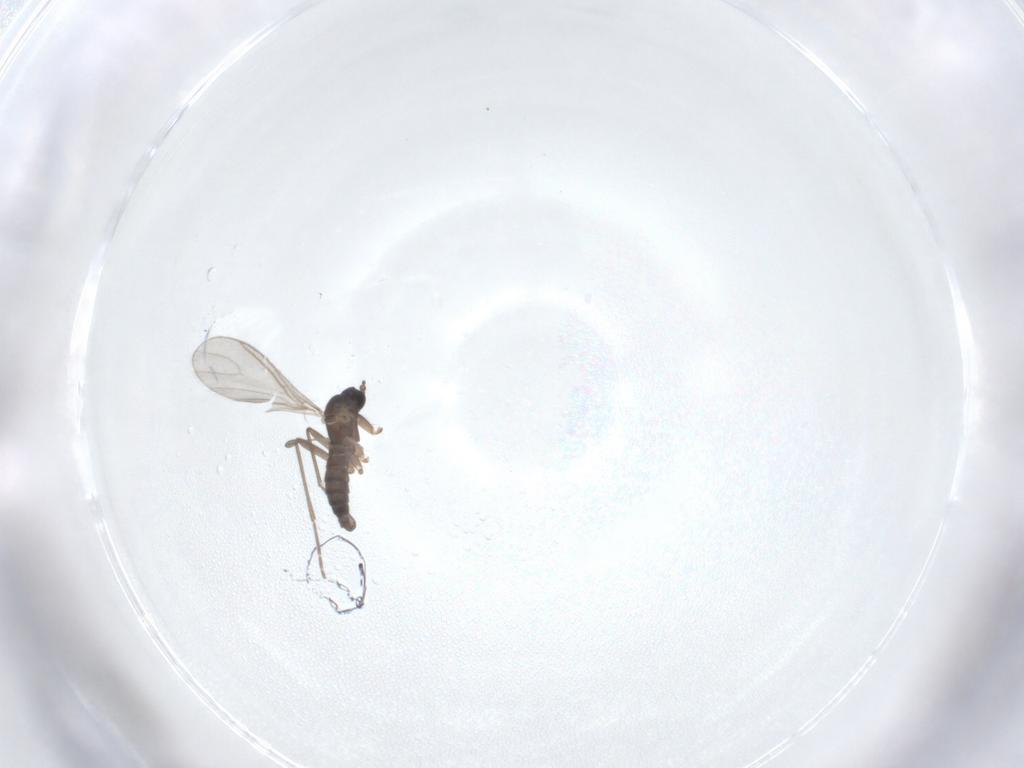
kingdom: Animalia
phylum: Arthropoda
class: Insecta
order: Diptera
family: Sciaridae
